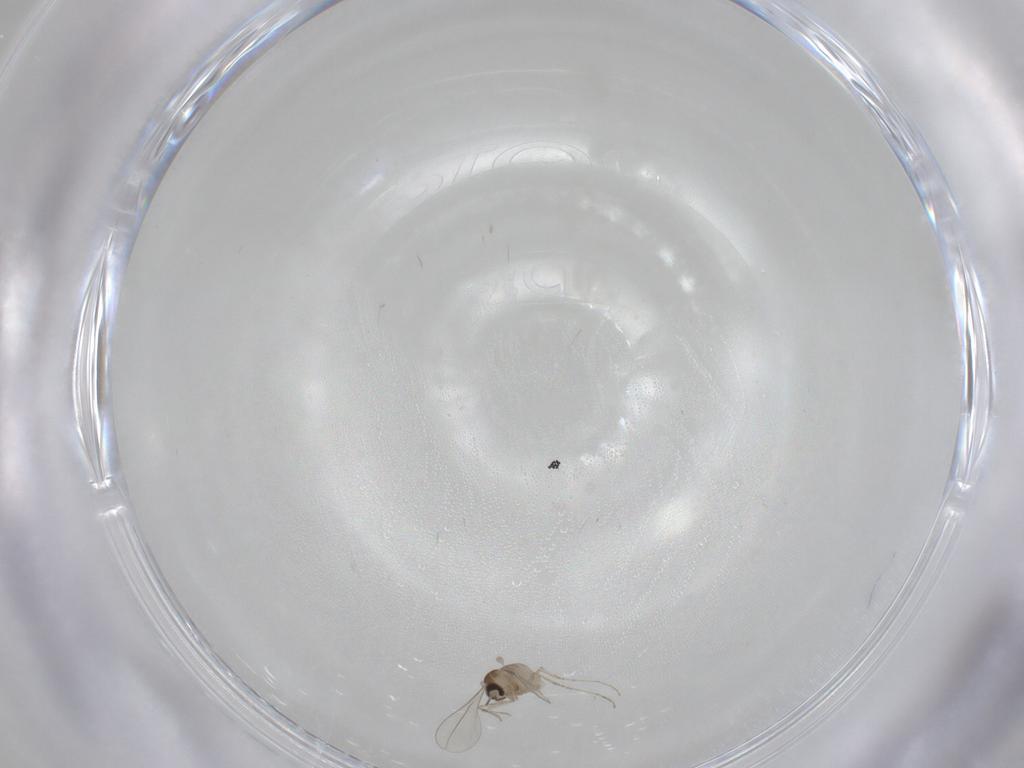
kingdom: Animalia
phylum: Arthropoda
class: Insecta
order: Diptera
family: Cecidomyiidae
